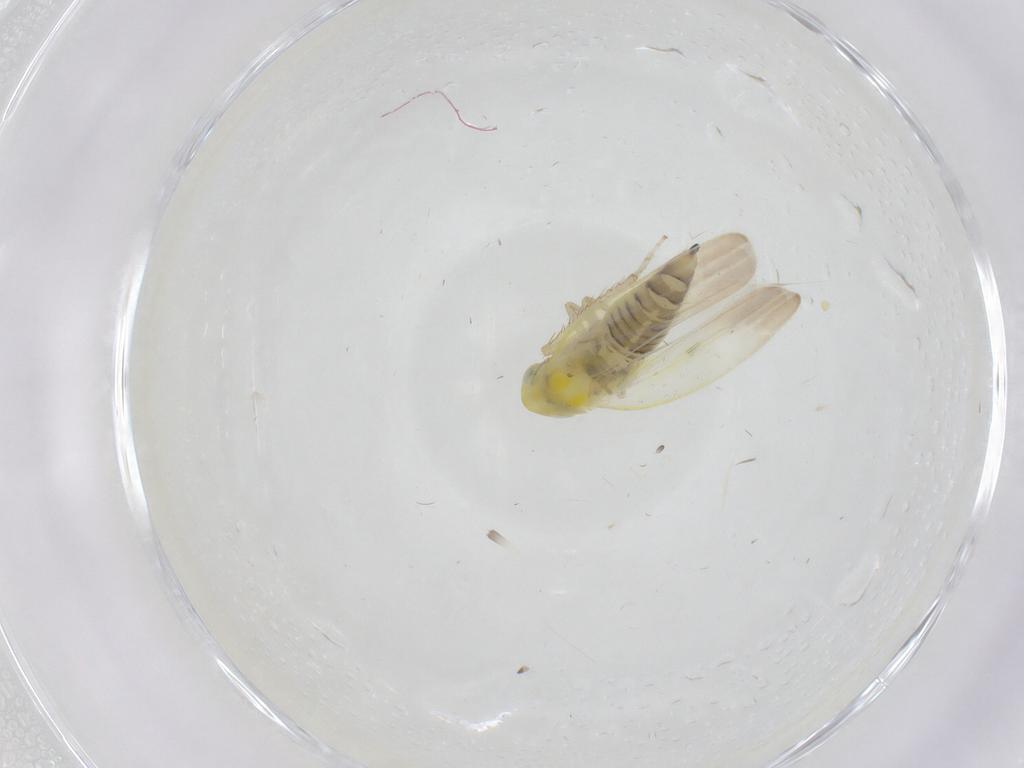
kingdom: Animalia
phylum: Arthropoda
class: Insecta
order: Hemiptera
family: Cicadellidae
